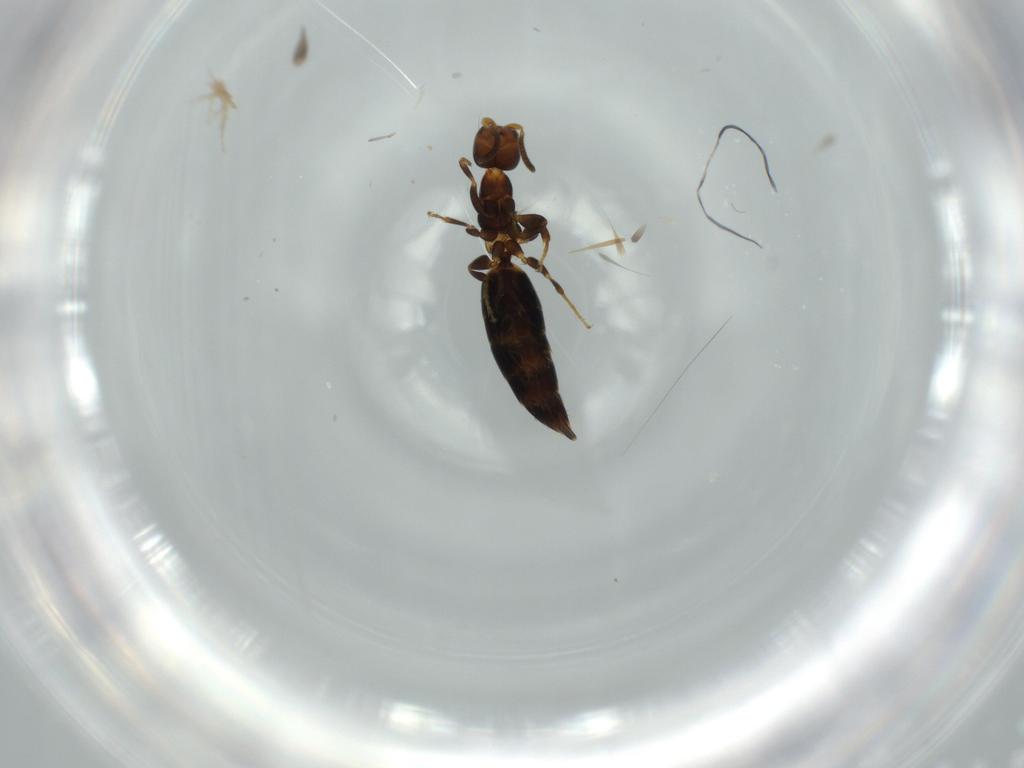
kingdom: Animalia
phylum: Arthropoda
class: Insecta
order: Hymenoptera
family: Bethylidae
